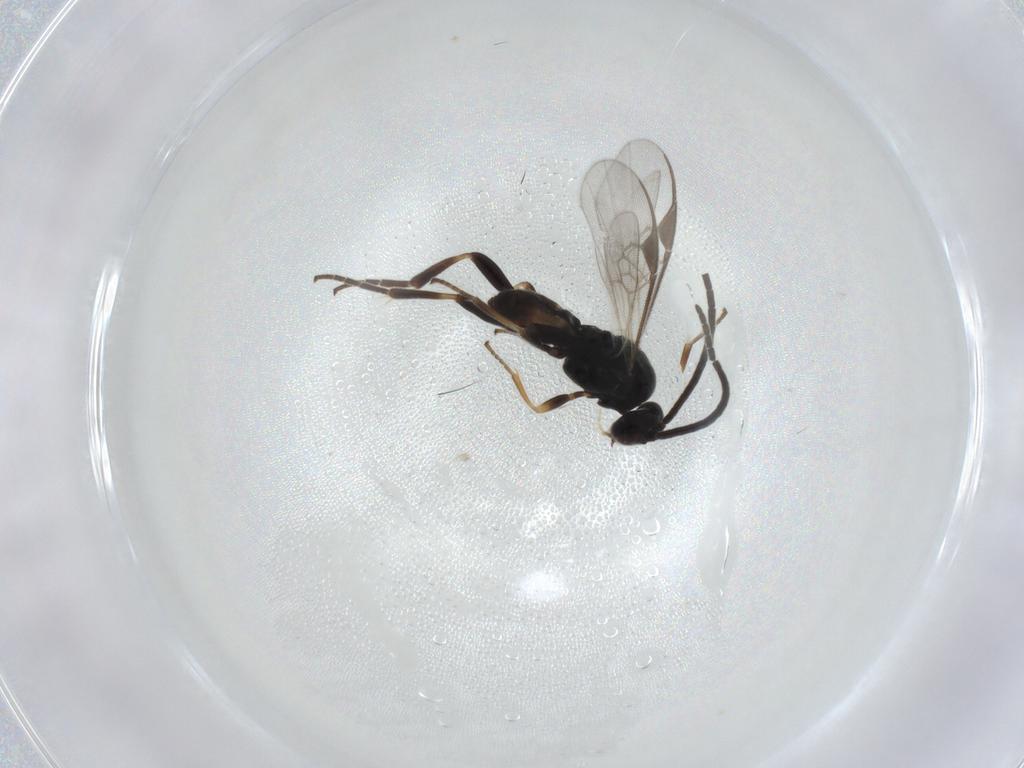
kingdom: Animalia
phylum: Arthropoda
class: Insecta
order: Hymenoptera
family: Braconidae
